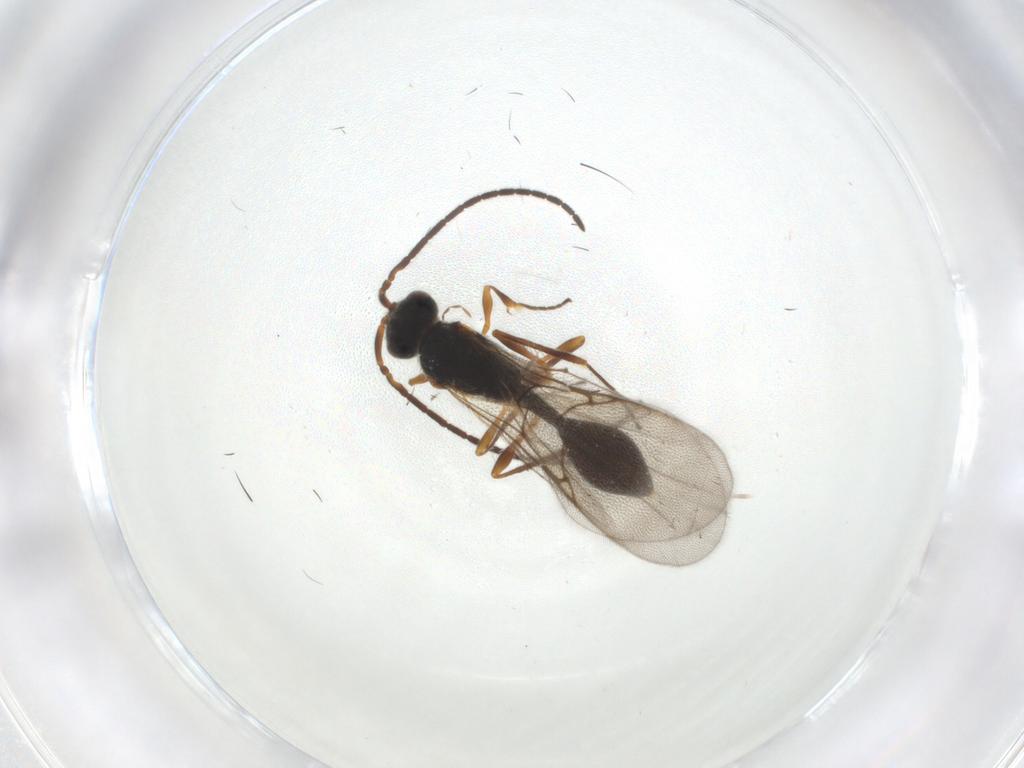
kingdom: Animalia
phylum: Arthropoda
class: Insecta
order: Hymenoptera
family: Diapriidae
